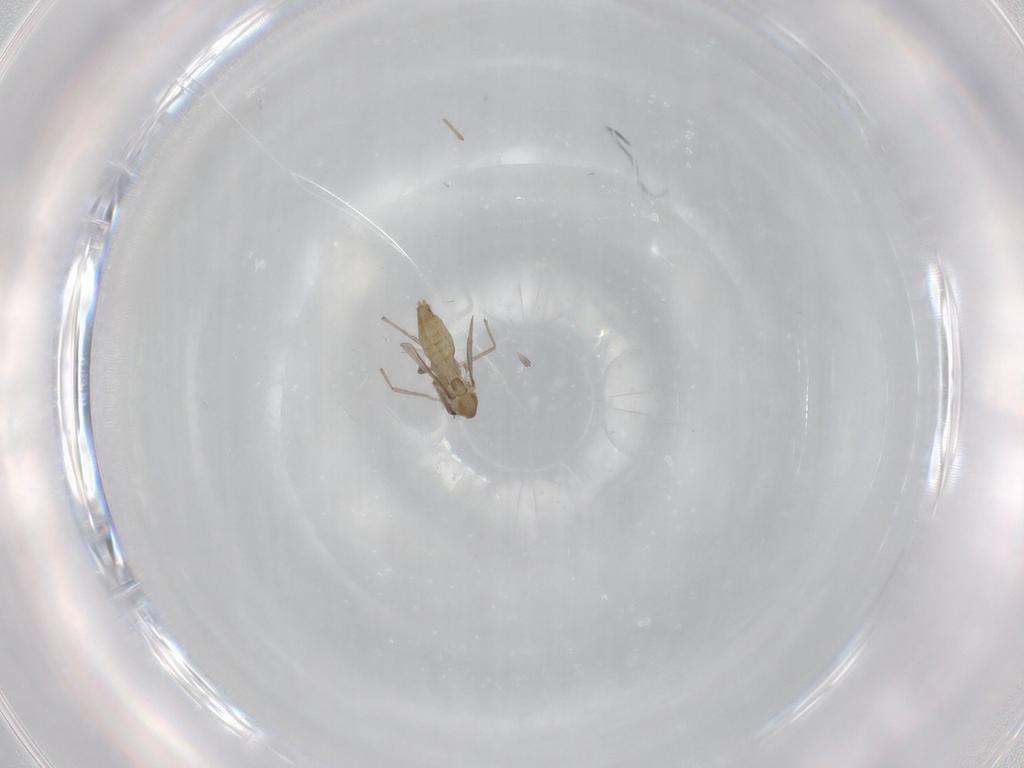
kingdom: Animalia
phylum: Arthropoda
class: Insecta
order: Diptera
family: Chironomidae
